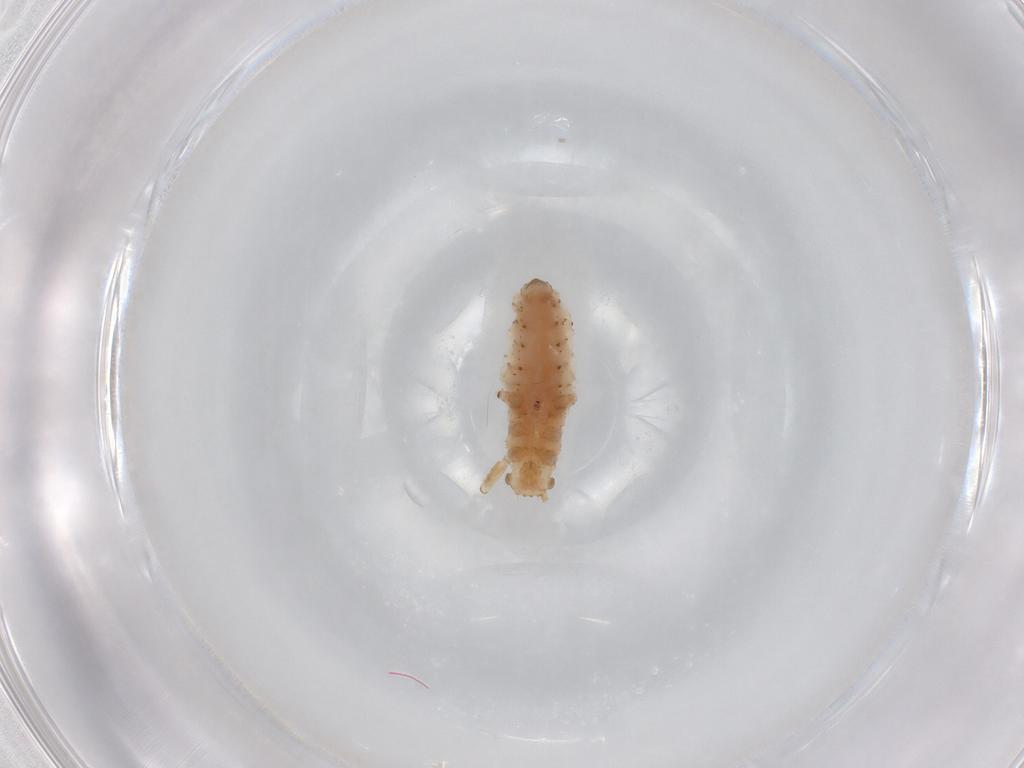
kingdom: Animalia
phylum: Arthropoda
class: Insecta
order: Hemiptera
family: Aphididae
